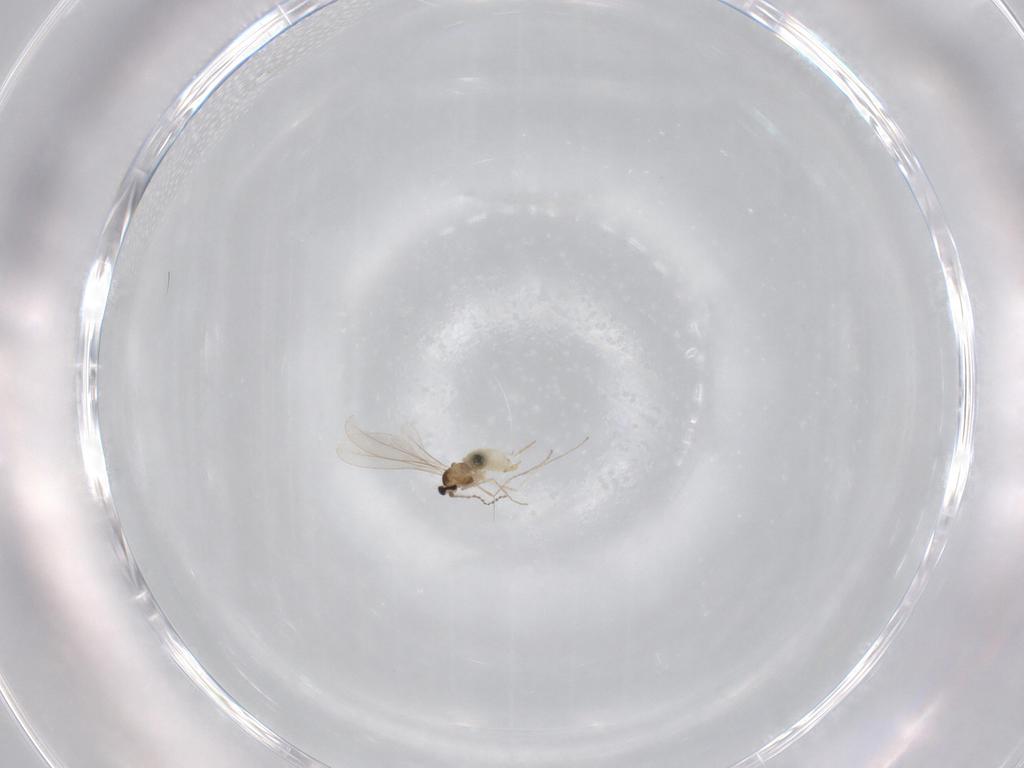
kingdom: Animalia
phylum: Arthropoda
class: Insecta
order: Diptera
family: Cecidomyiidae
